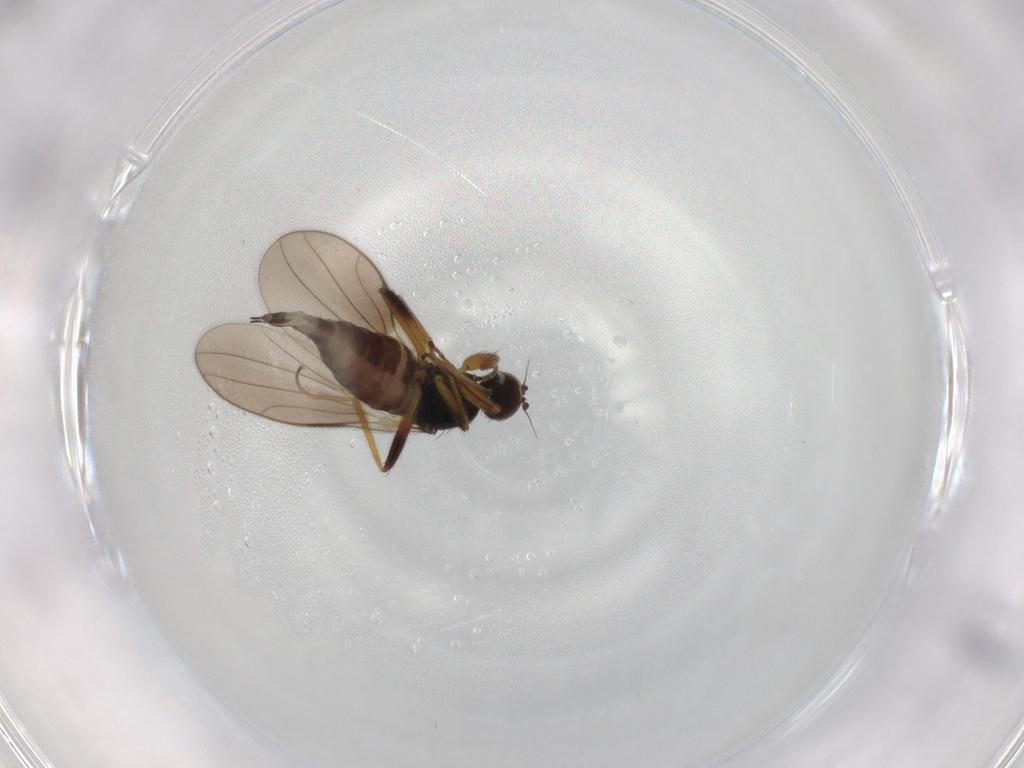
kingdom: Animalia
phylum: Arthropoda
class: Insecta
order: Diptera
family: Hybotidae
